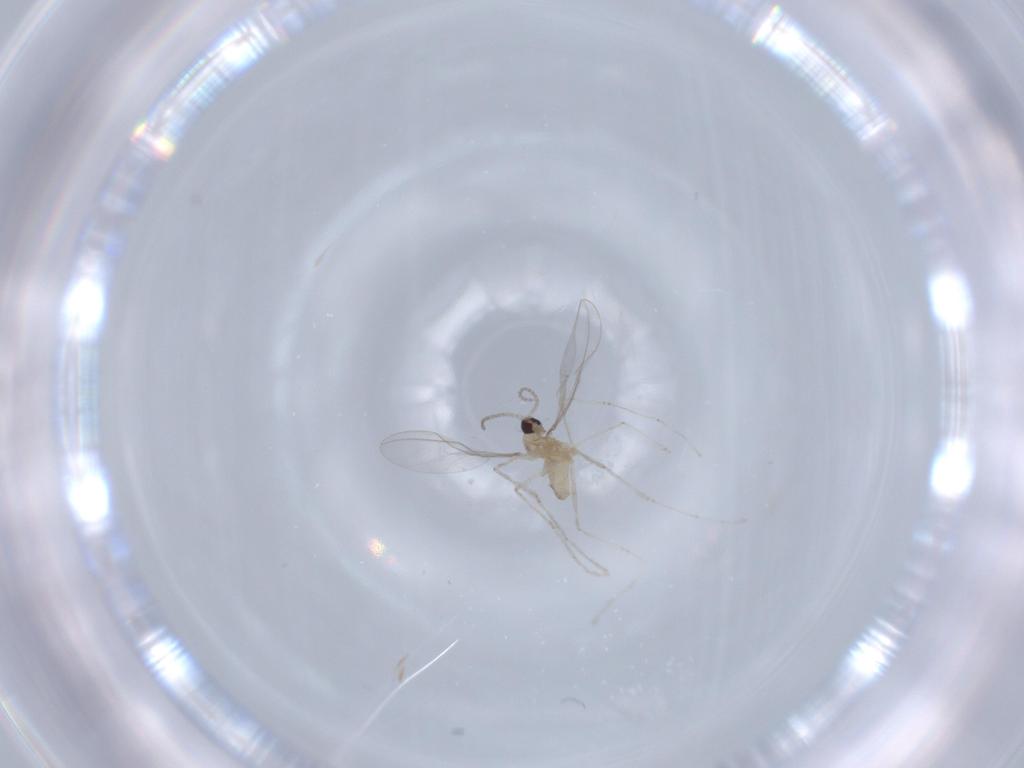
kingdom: Animalia
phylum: Arthropoda
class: Insecta
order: Diptera
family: Cecidomyiidae
